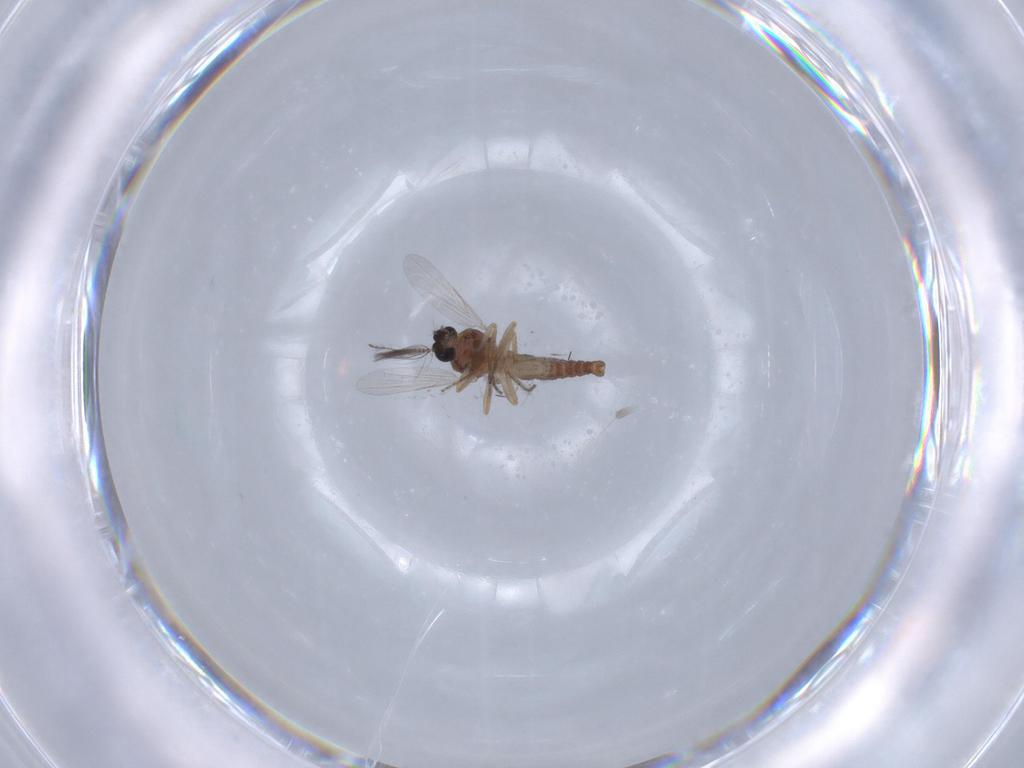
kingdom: Animalia
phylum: Arthropoda
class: Insecta
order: Diptera
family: Ceratopogonidae
